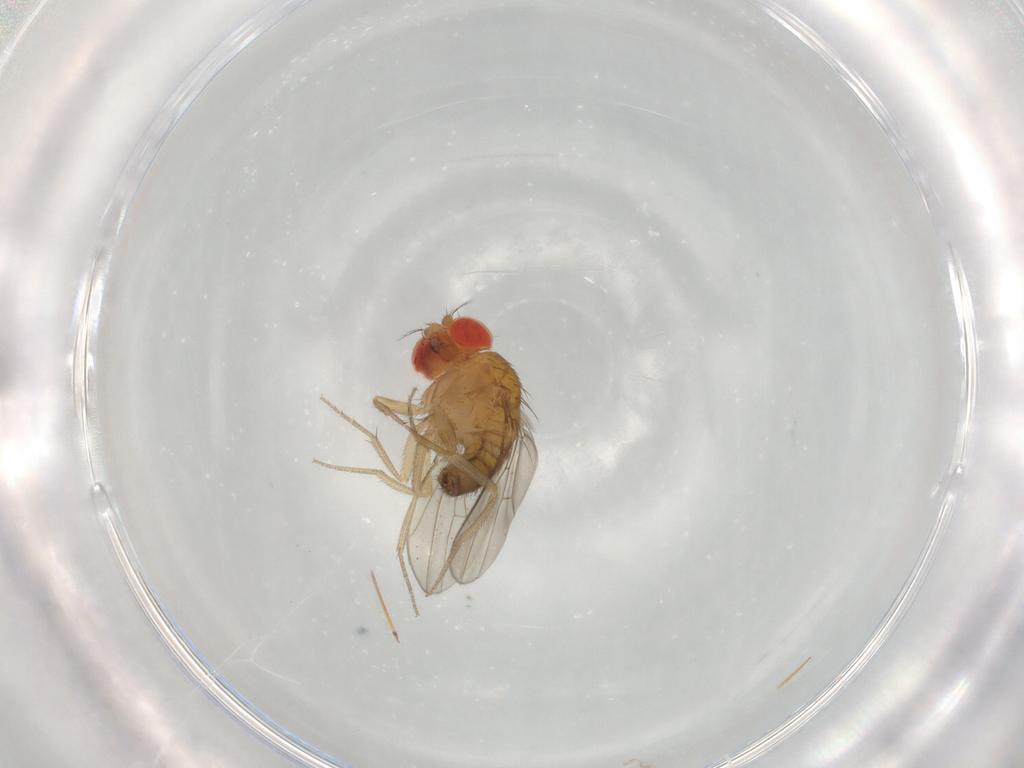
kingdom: Animalia
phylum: Arthropoda
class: Insecta
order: Diptera
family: Drosophilidae
